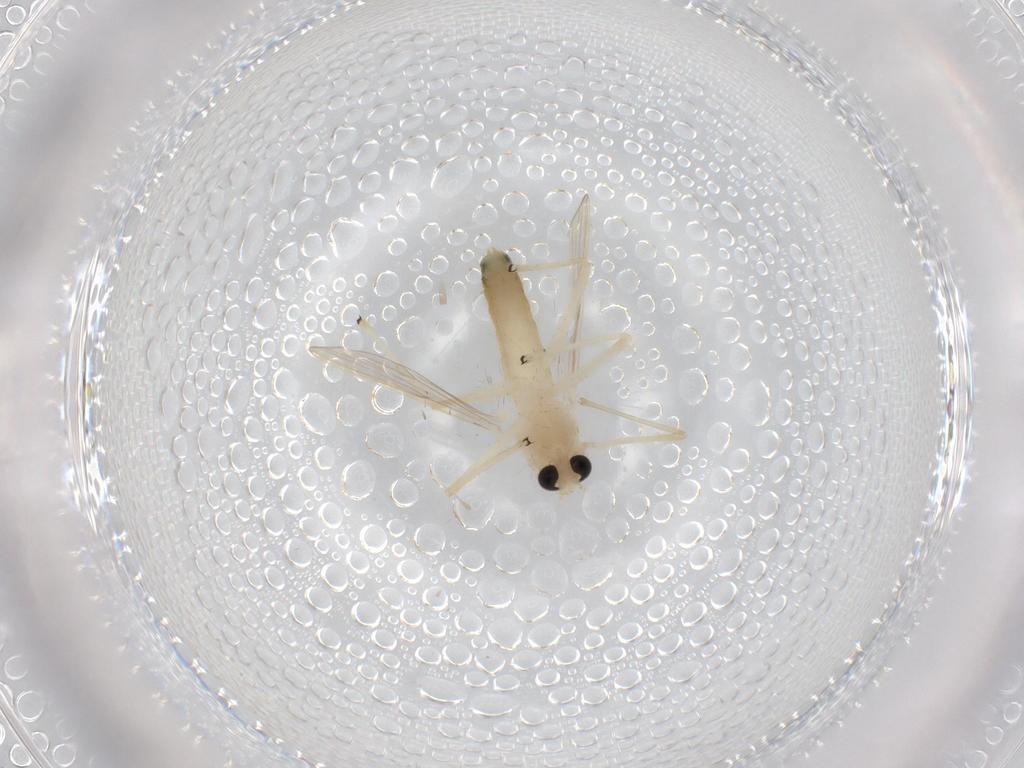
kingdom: Animalia
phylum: Arthropoda
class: Insecta
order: Diptera
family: Chironomidae
